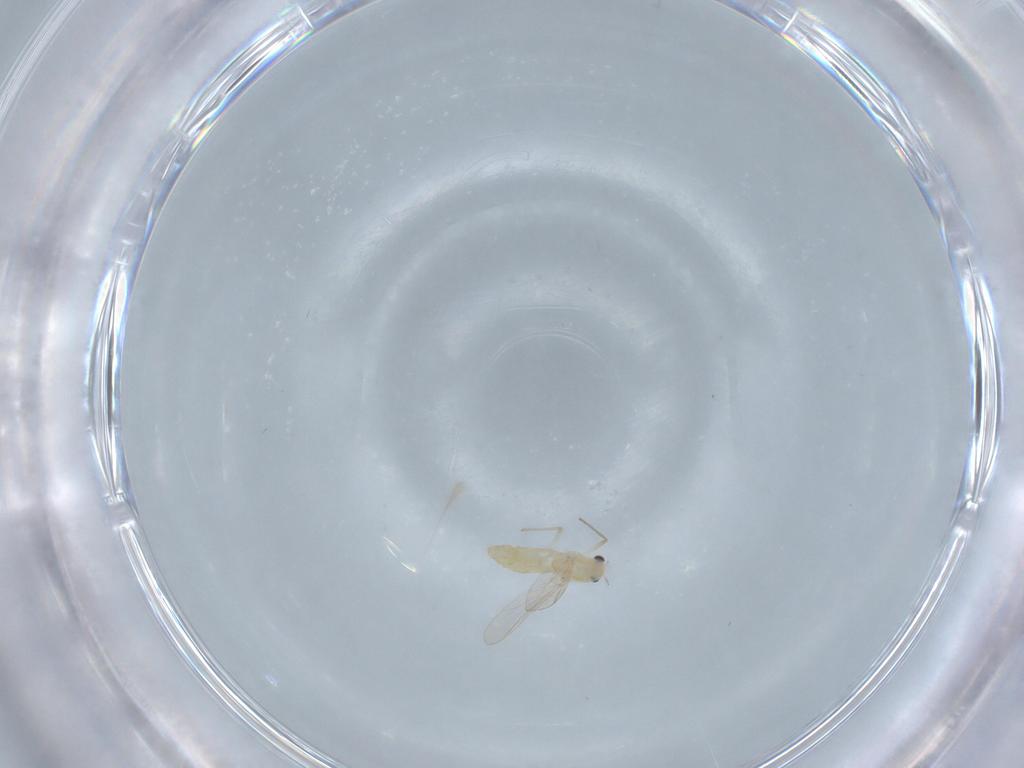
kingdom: Animalia
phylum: Arthropoda
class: Insecta
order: Diptera
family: Chironomidae
